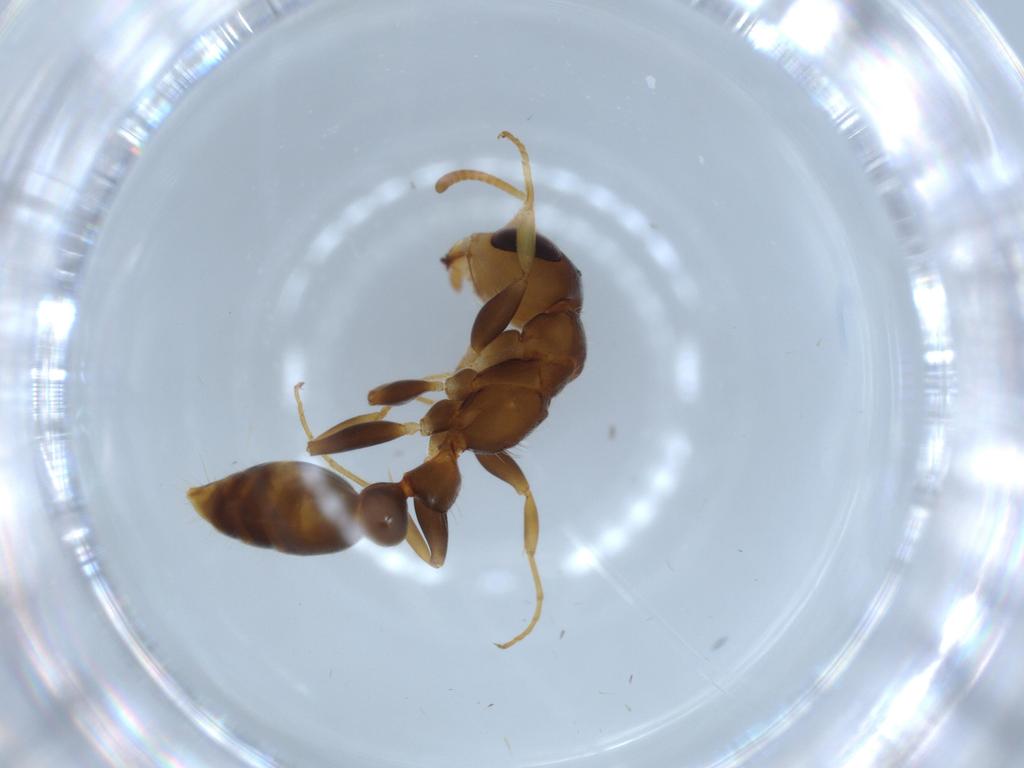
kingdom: Animalia
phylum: Arthropoda
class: Insecta
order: Hymenoptera
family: Formicidae
